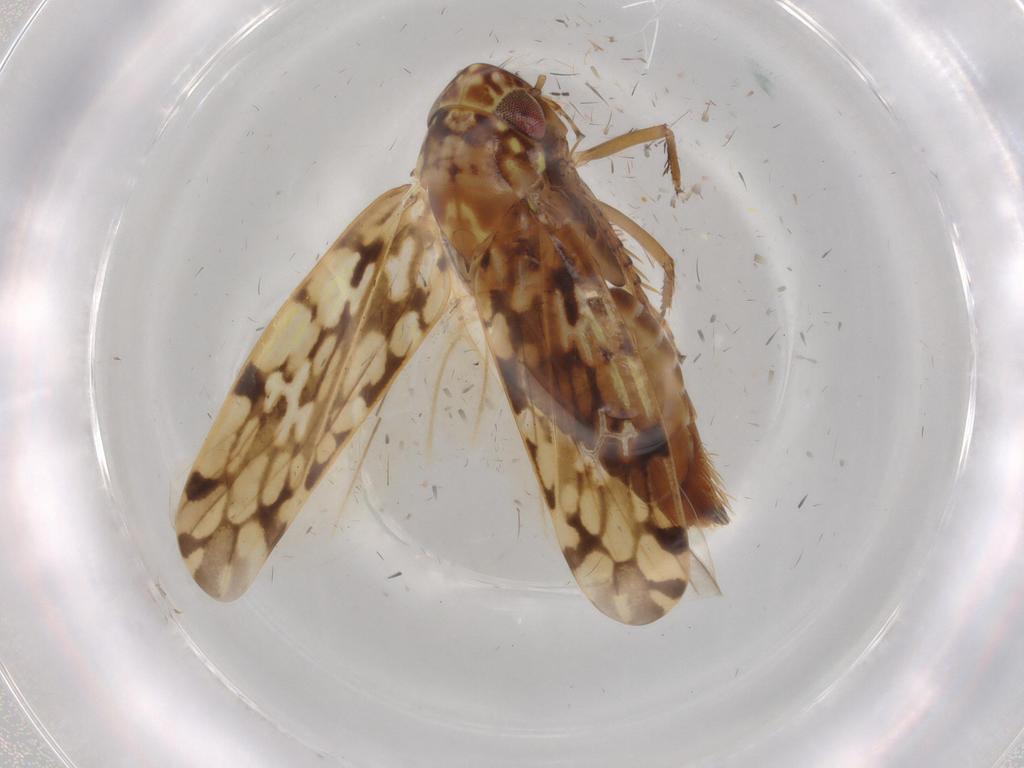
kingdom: Animalia
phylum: Arthropoda
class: Insecta
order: Hemiptera
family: Cicadellidae
